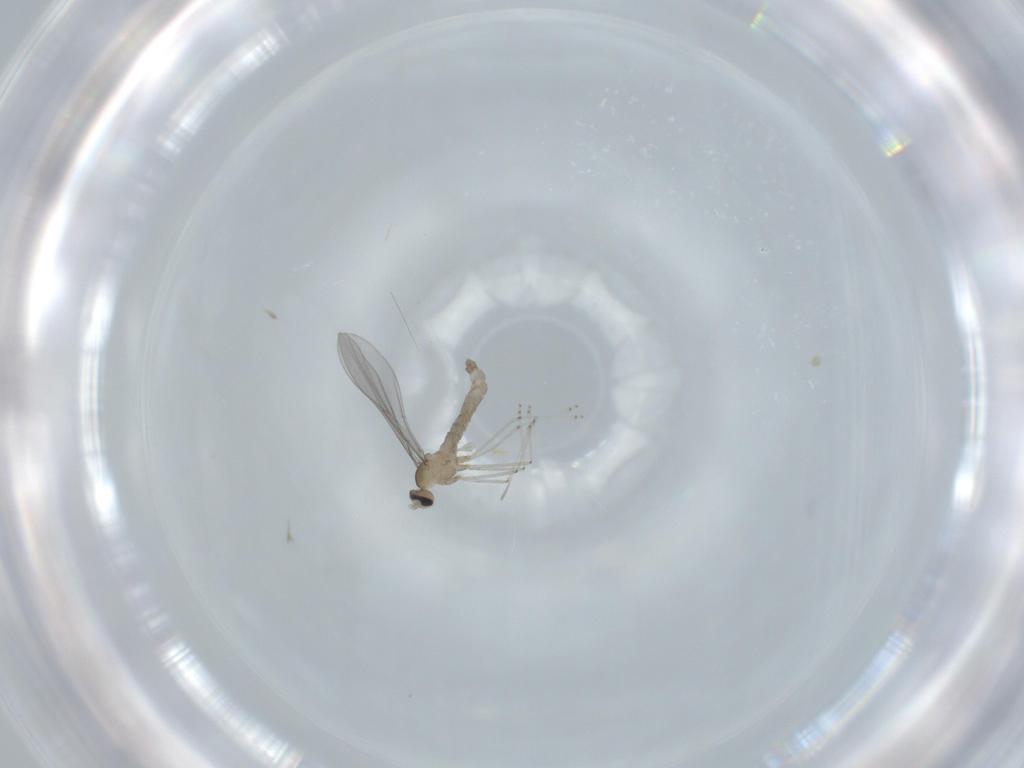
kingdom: Animalia
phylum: Arthropoda
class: Insecta
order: Diptera
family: Cecidomyiidae
